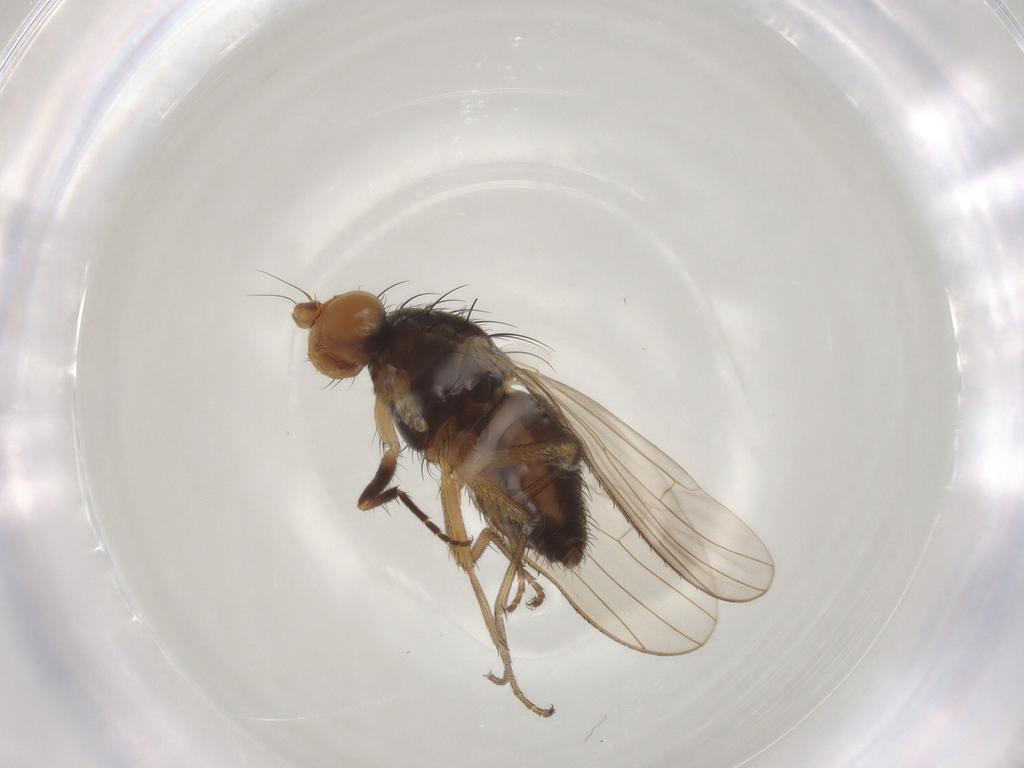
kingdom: Animalia
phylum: Arthropoda
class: Insecta
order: Diptera
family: Heleomyzidae
